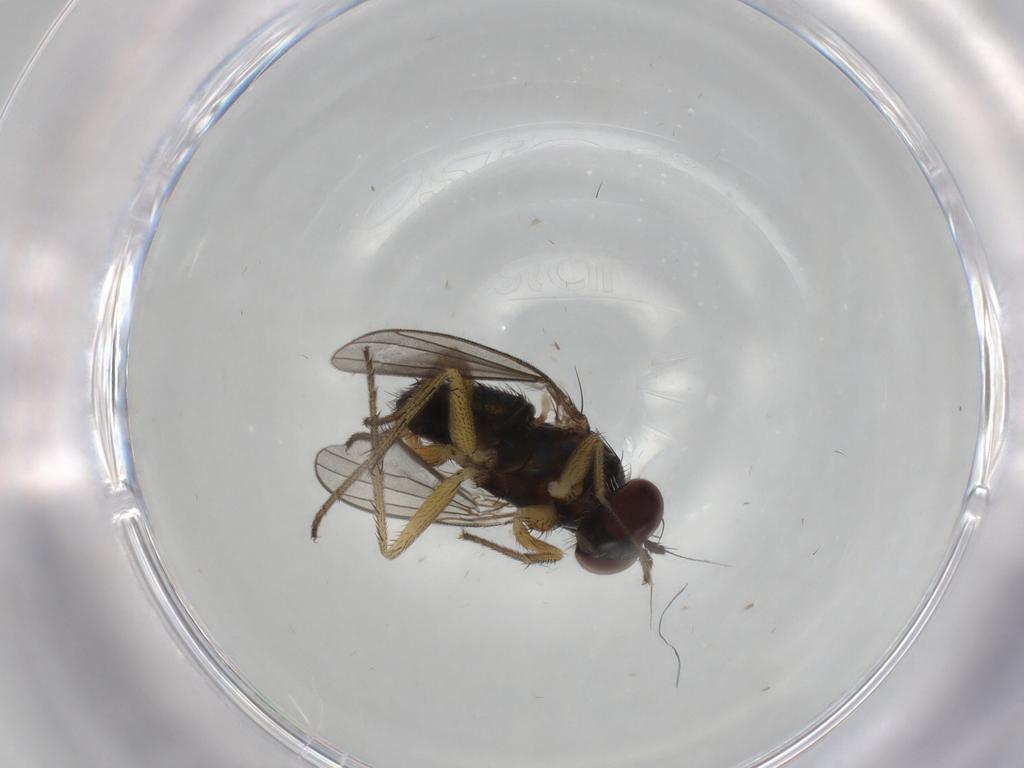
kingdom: Animalia
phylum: Arthropoda
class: Insecta
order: Diptera
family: Dolichopodidae
